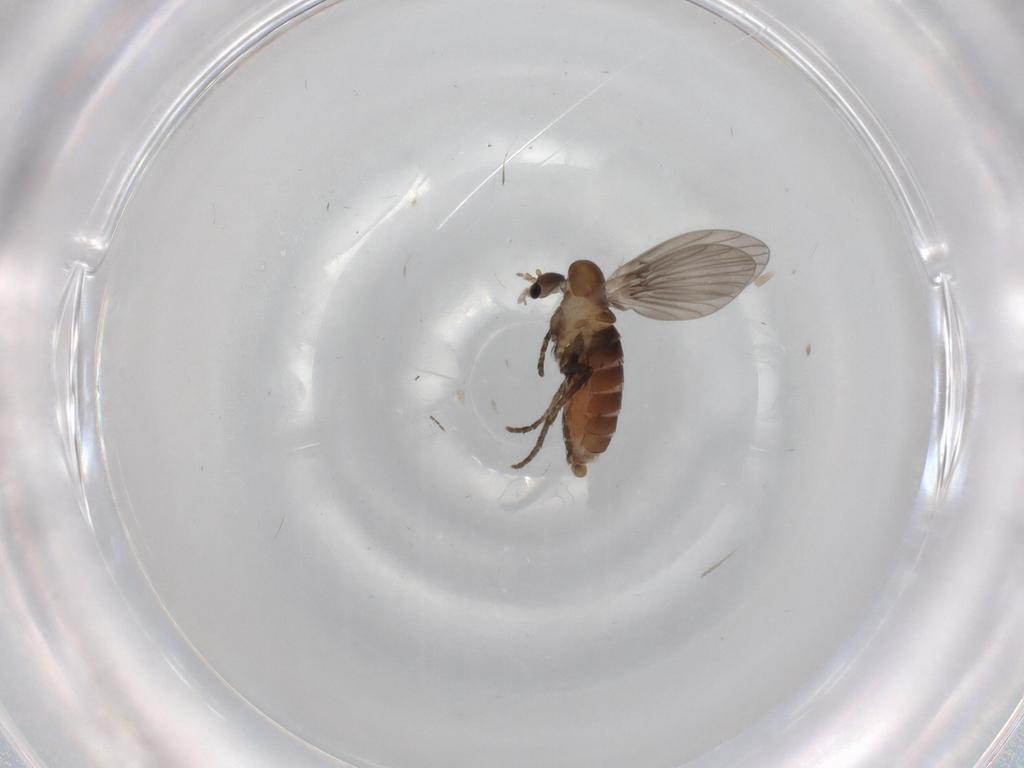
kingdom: Animalia
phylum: Arthropoda
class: Insecta
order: Diptera
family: Psychodidae
